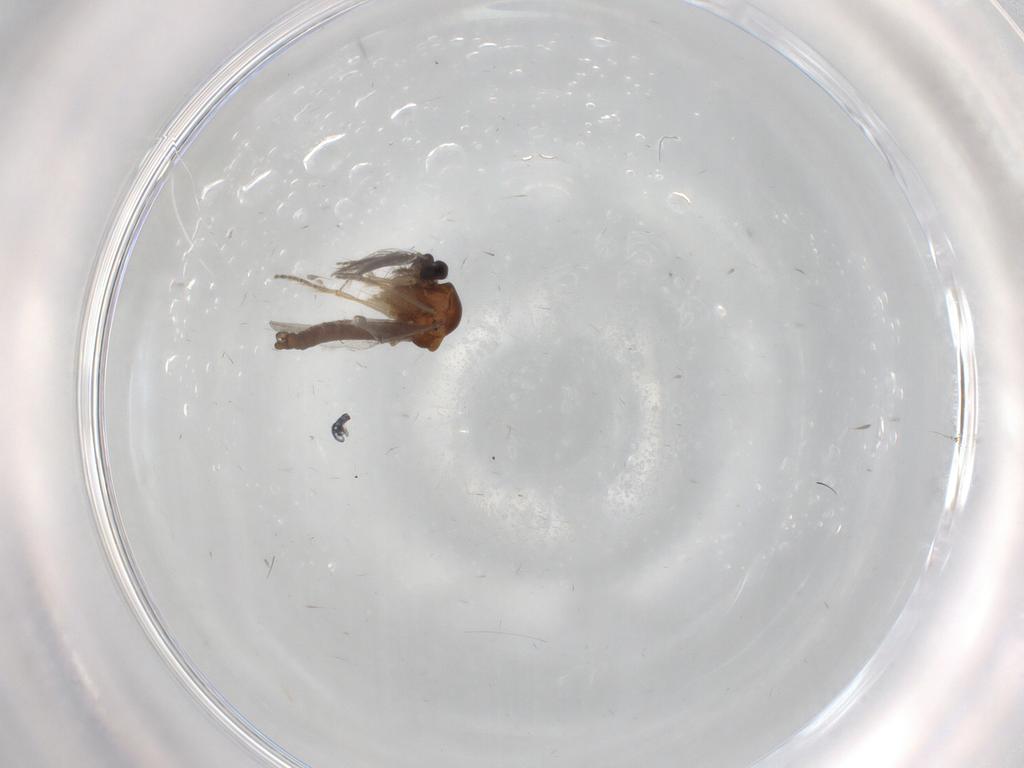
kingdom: Animalia
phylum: Arthropoda
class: Insecta
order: Diptera
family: Ceratopogonidae
